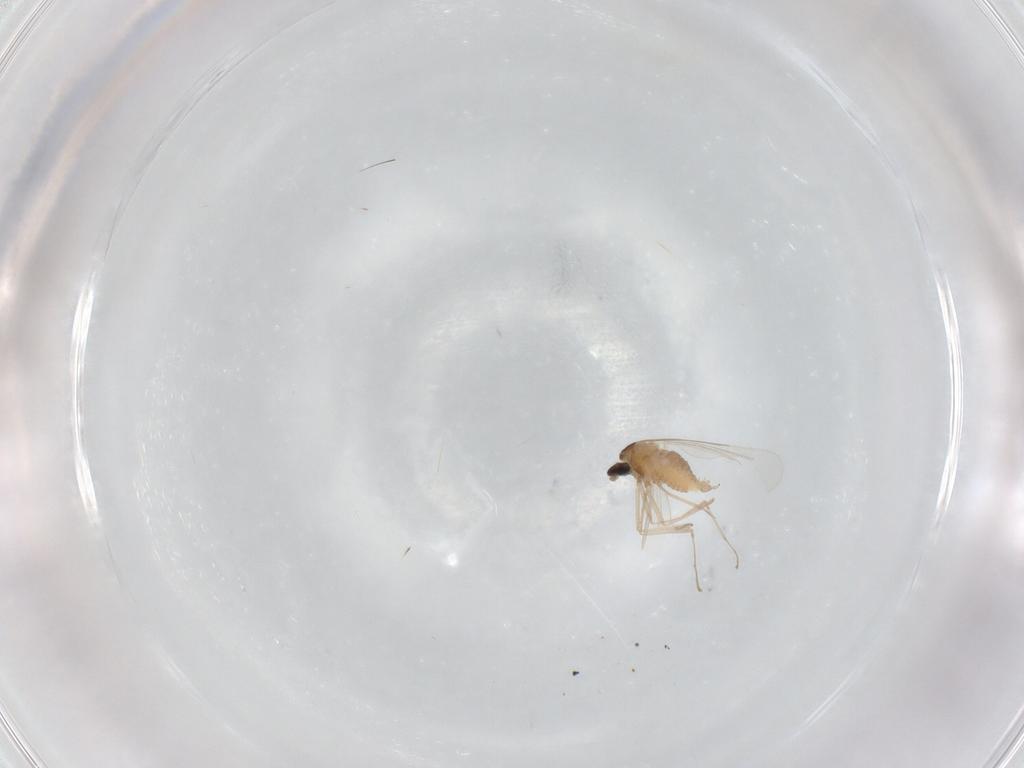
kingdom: Animalia
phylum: Arthropoda
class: Insecta
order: Diptera
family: Cecidomyiidae
